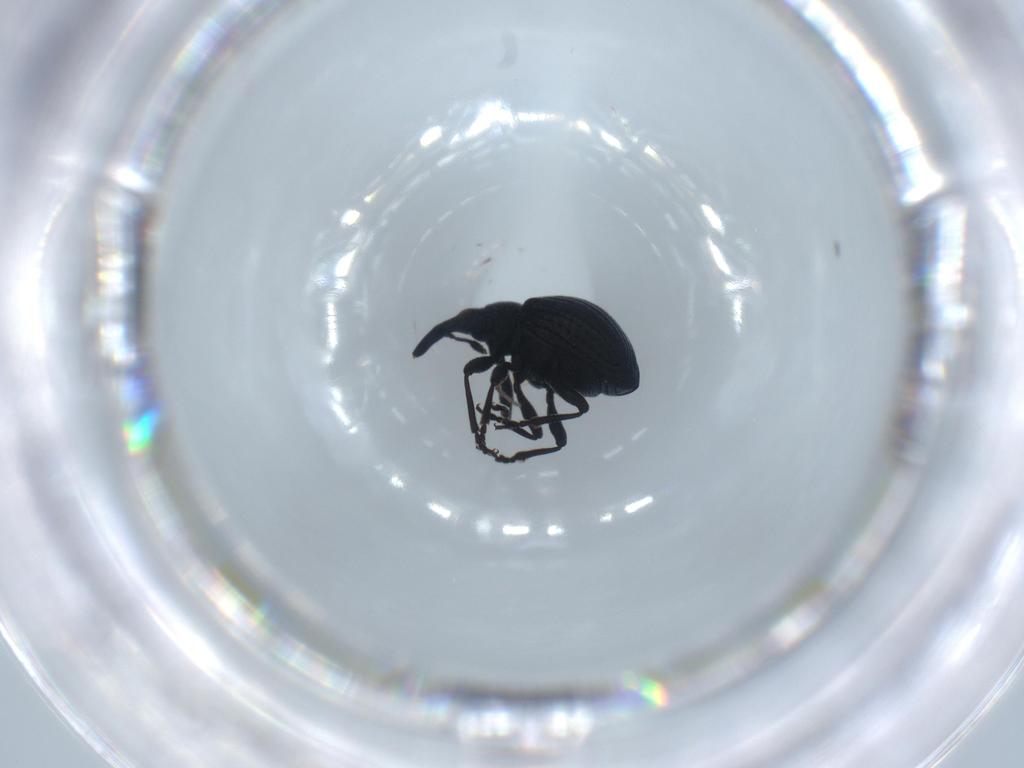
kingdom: Animalia
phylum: Arthropoda
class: Insecta
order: Coleoptera
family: Brentidae
